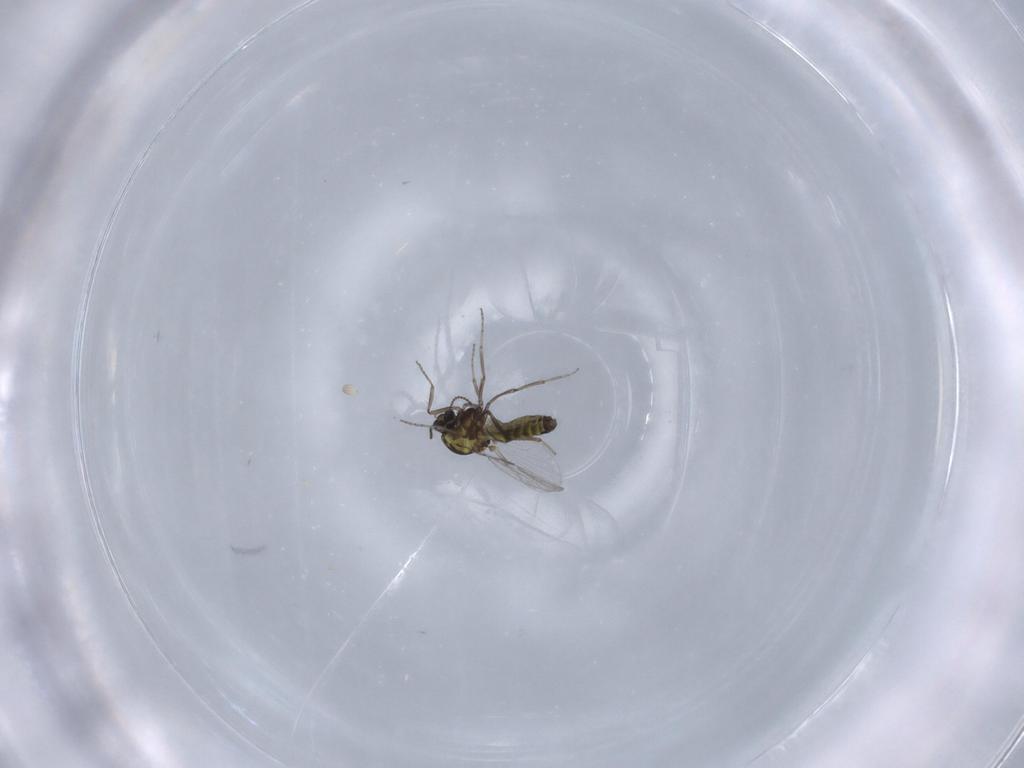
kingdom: Animalia
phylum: Arthropoda
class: Insecta
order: Diptera
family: Ceratopogonidae
